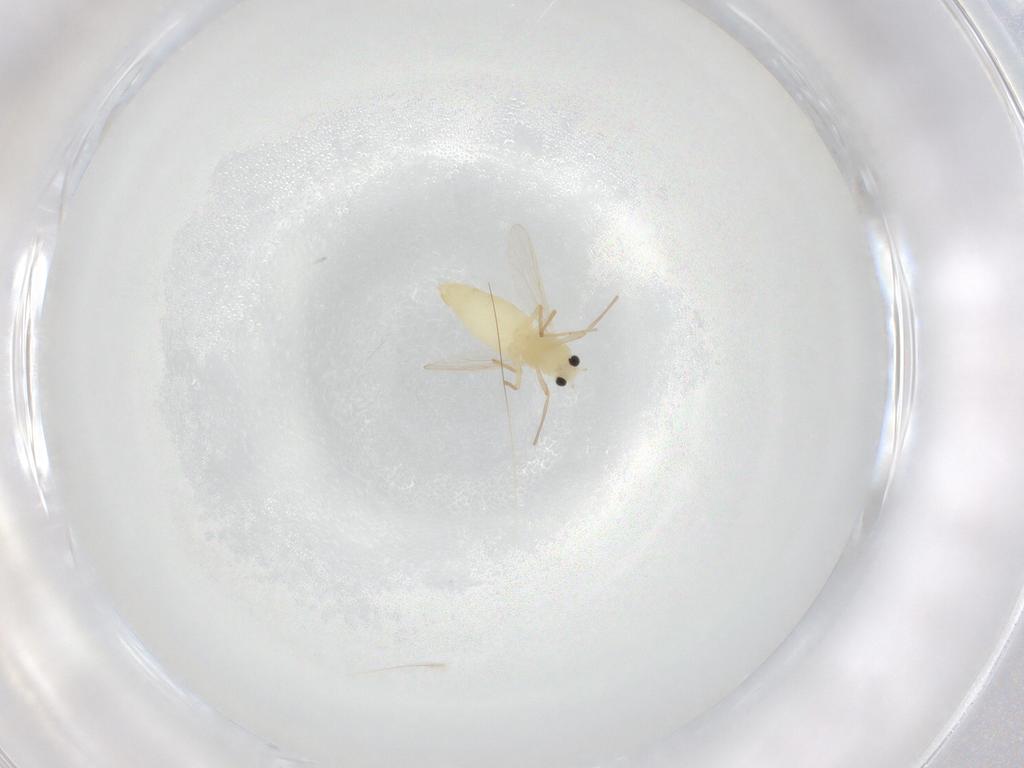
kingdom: Animalia
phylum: Arthropoda
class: Insecta
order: Diptera
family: Chironomidae
